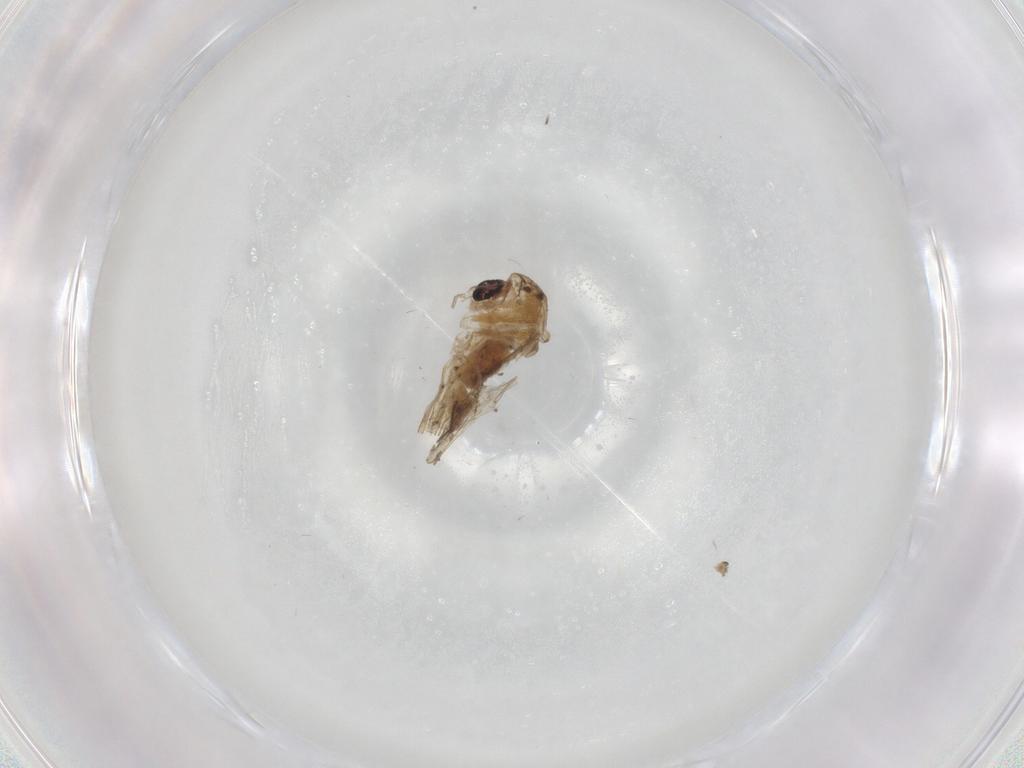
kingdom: Animalia
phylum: Arthropoda
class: Insecta
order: Diptera
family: Chironomidae
